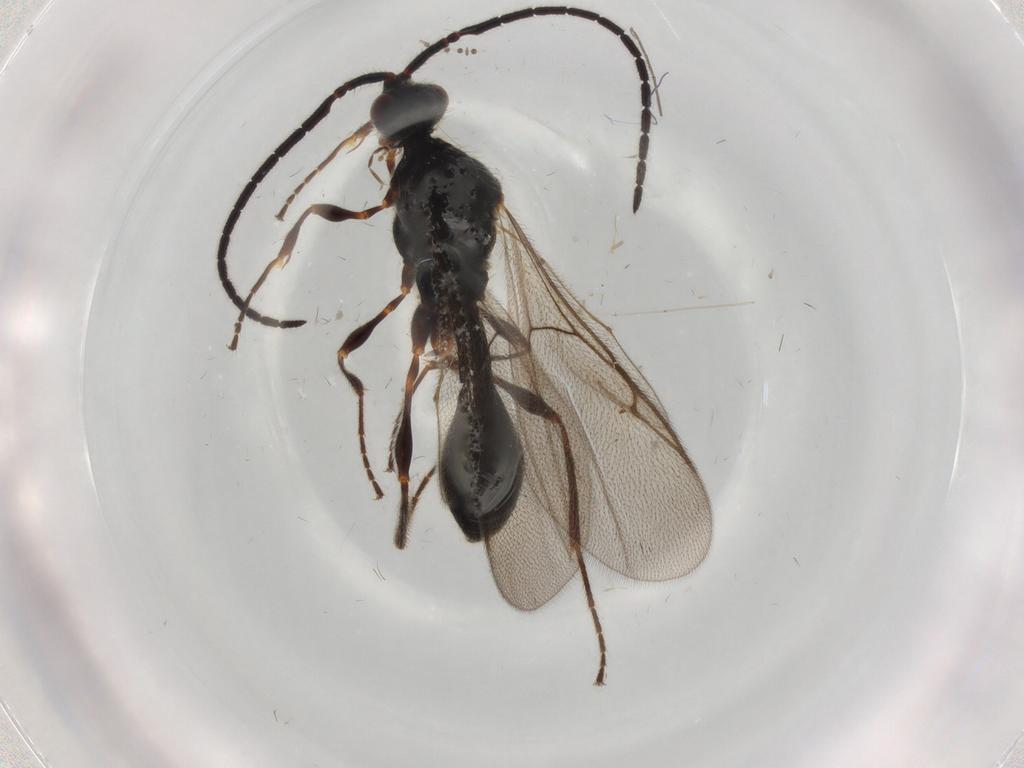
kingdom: Animalia
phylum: Arthropoda
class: Insecta
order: Hymenoptera
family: Diapriidae
